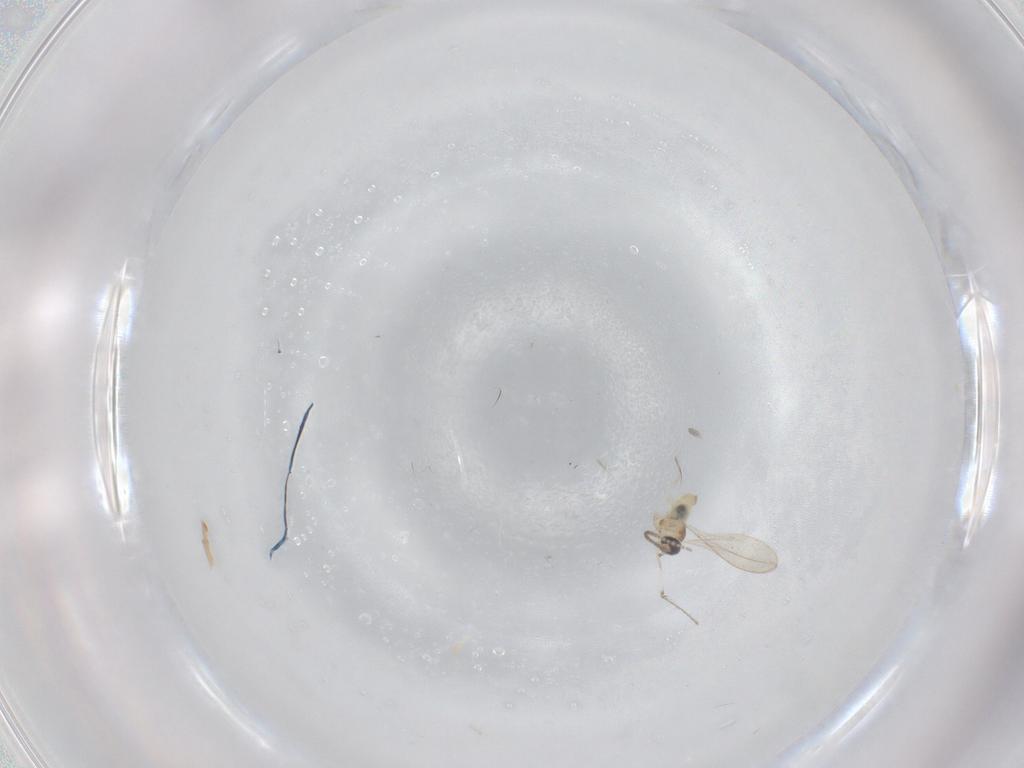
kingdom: Animalia
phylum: Arthropoda
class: Insecta
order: Diptera
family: Cecidomyiidae
